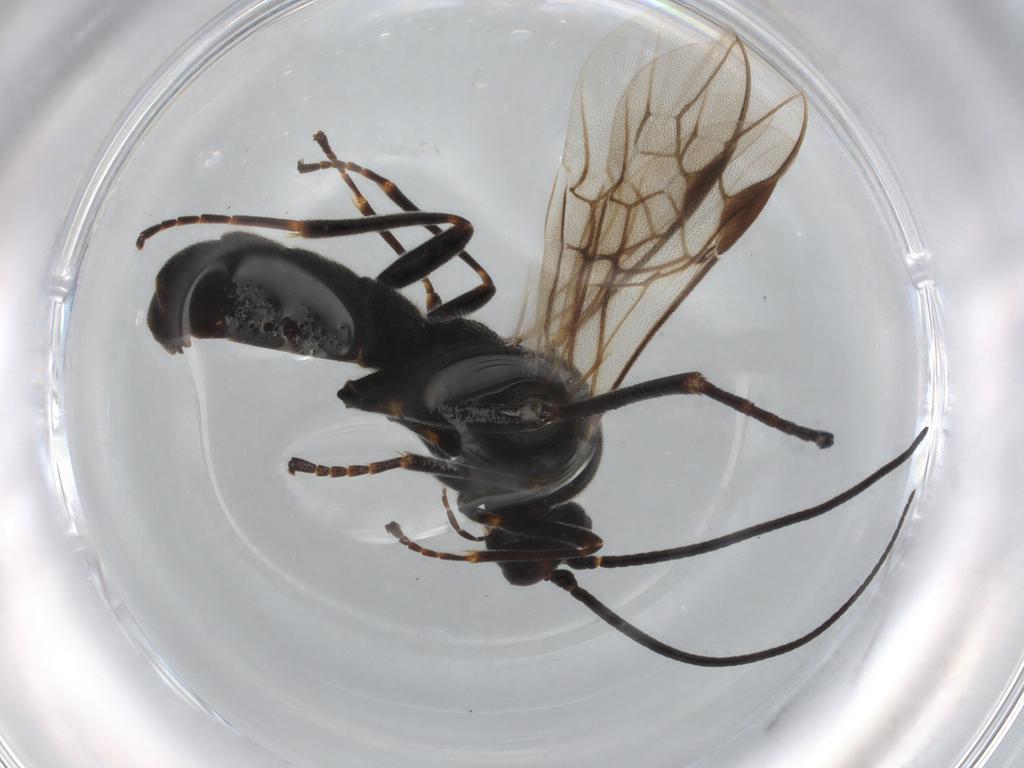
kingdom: Animalia
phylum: Arthropoda
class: Insecta
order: Hymenoptera
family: Braconidae
